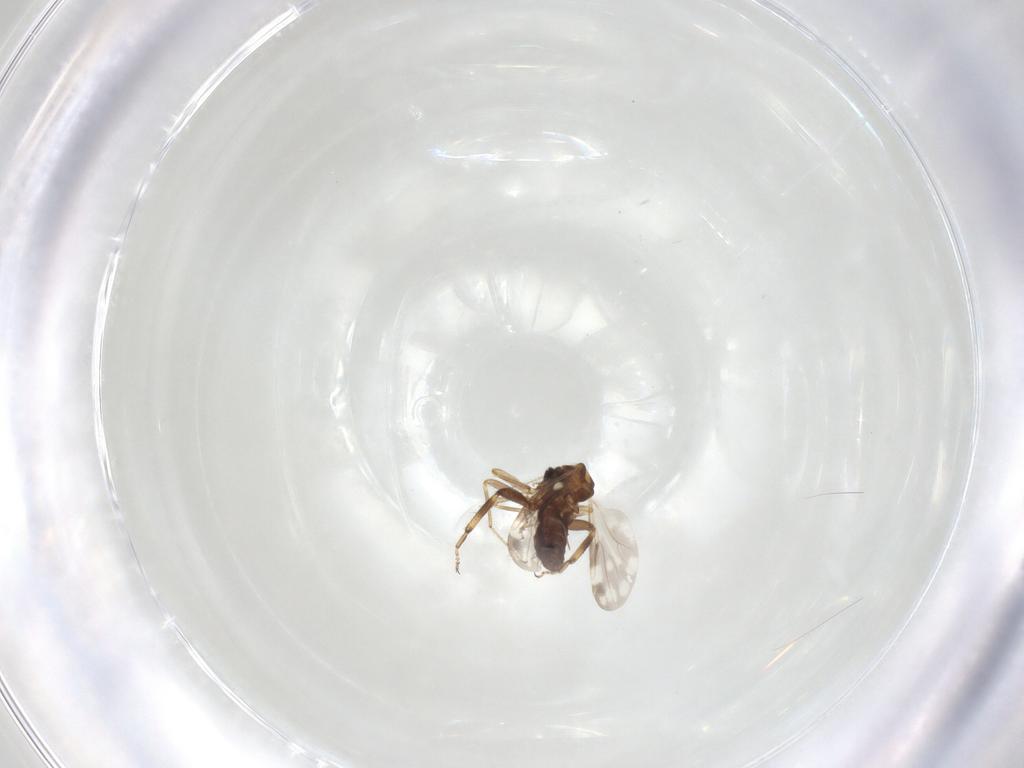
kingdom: Animalia
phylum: Arthropoda
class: Insecta
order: Diptera
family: Ceratopogonidae
